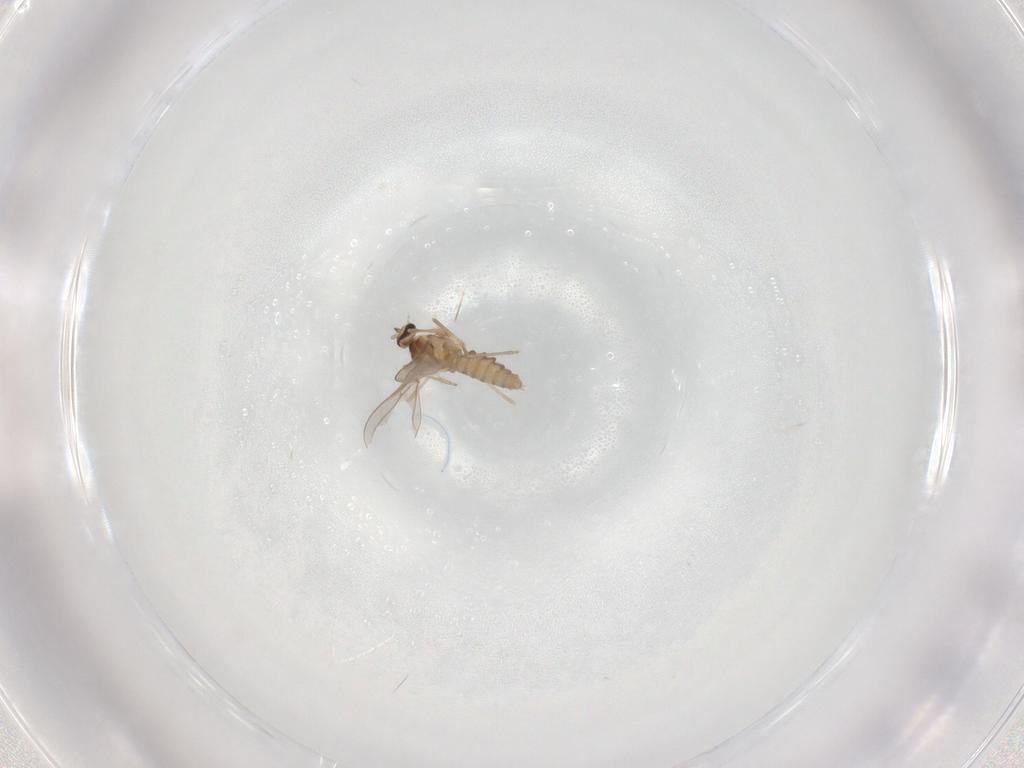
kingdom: Animalia
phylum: Arthropoda
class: Insecta
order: Diptera
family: Cecidomyiidae
